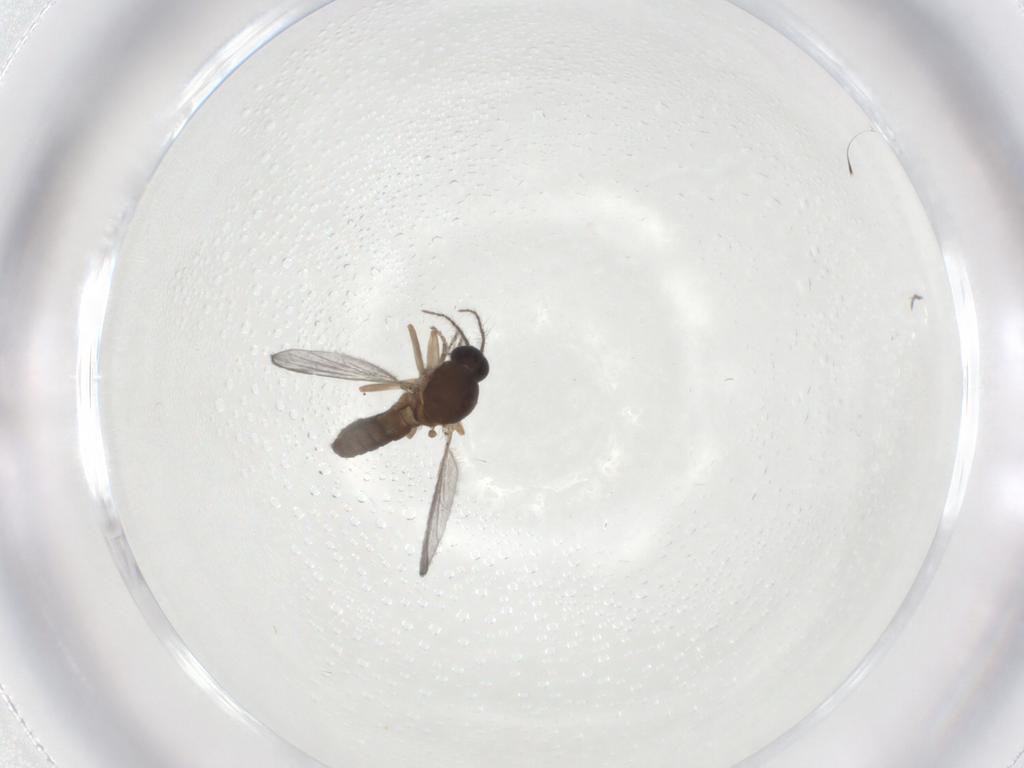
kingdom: Animalia
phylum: Arthropoda
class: Insecta
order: Diptera
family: Ceratopogonidae
